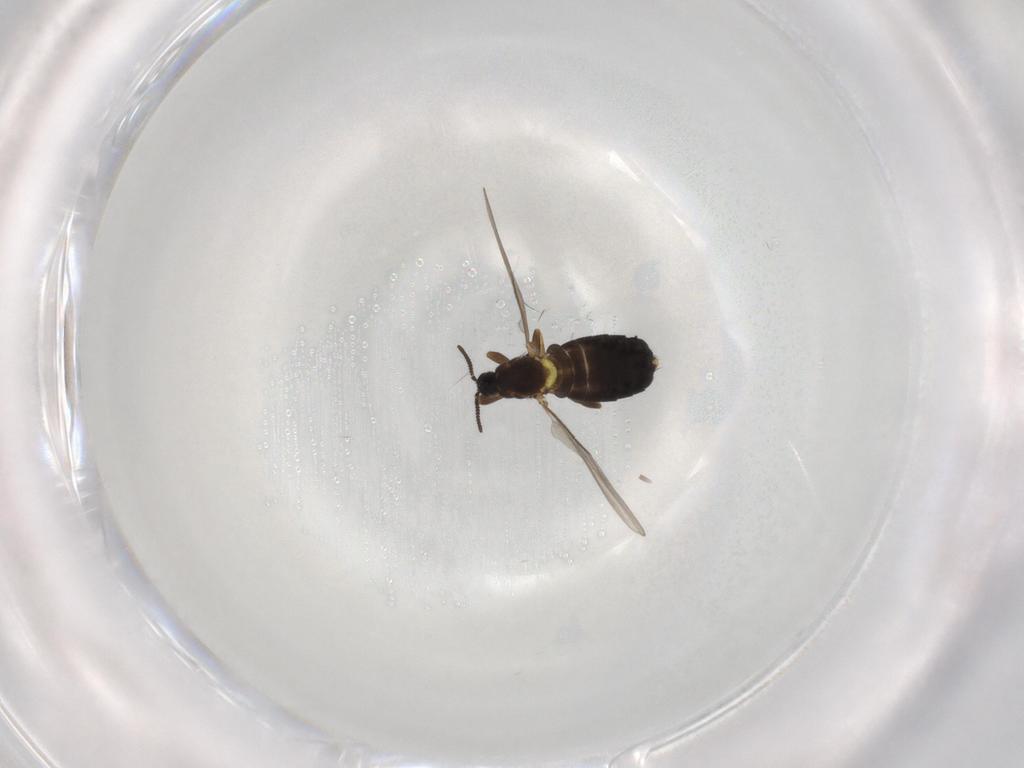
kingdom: Animalia
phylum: Arthropoda
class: Insecta
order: Diptera
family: Scatopsidae
